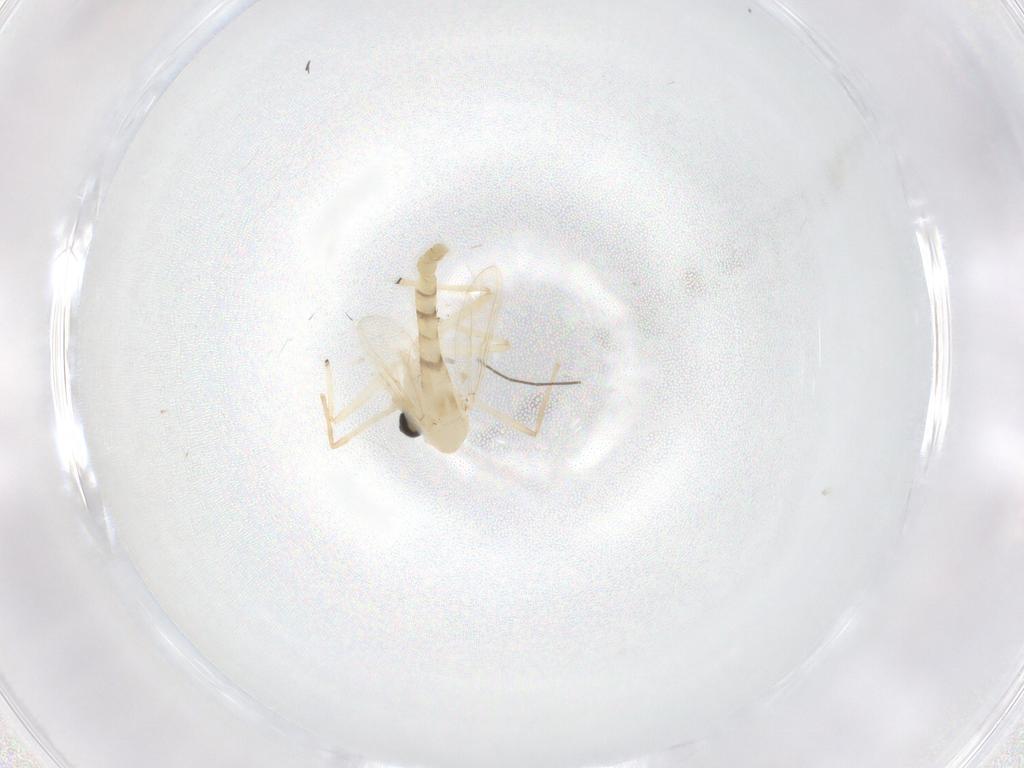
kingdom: Animalia
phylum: Arthropoda
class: Insecta
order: Diptera
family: Chironomidae
